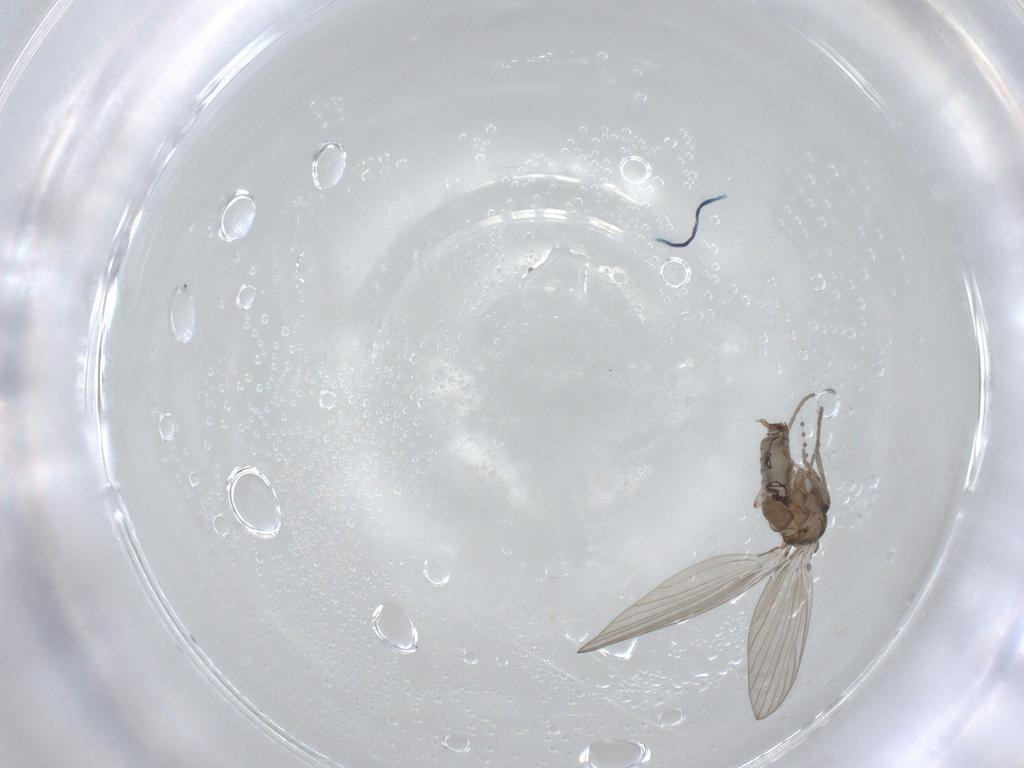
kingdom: Animalia
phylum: Arthropoda
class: Insecta
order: Diptera
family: Psychodidae
